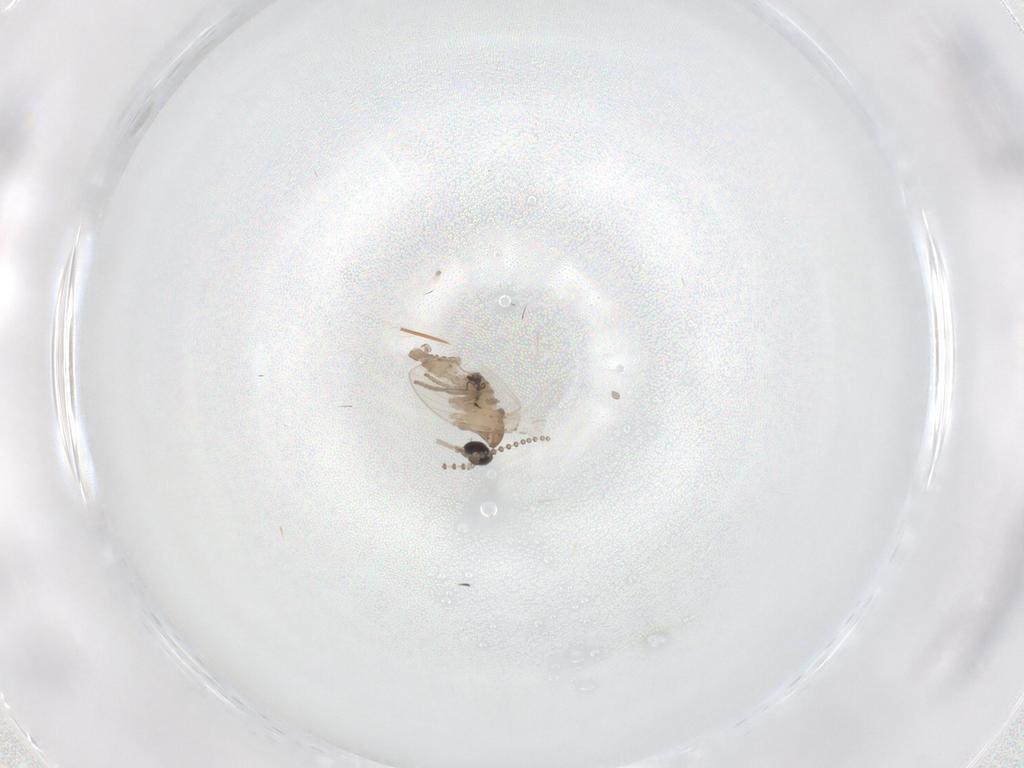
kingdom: Animalia
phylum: Arthropoda
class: Insecta
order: Diptera
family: Psychodidae
